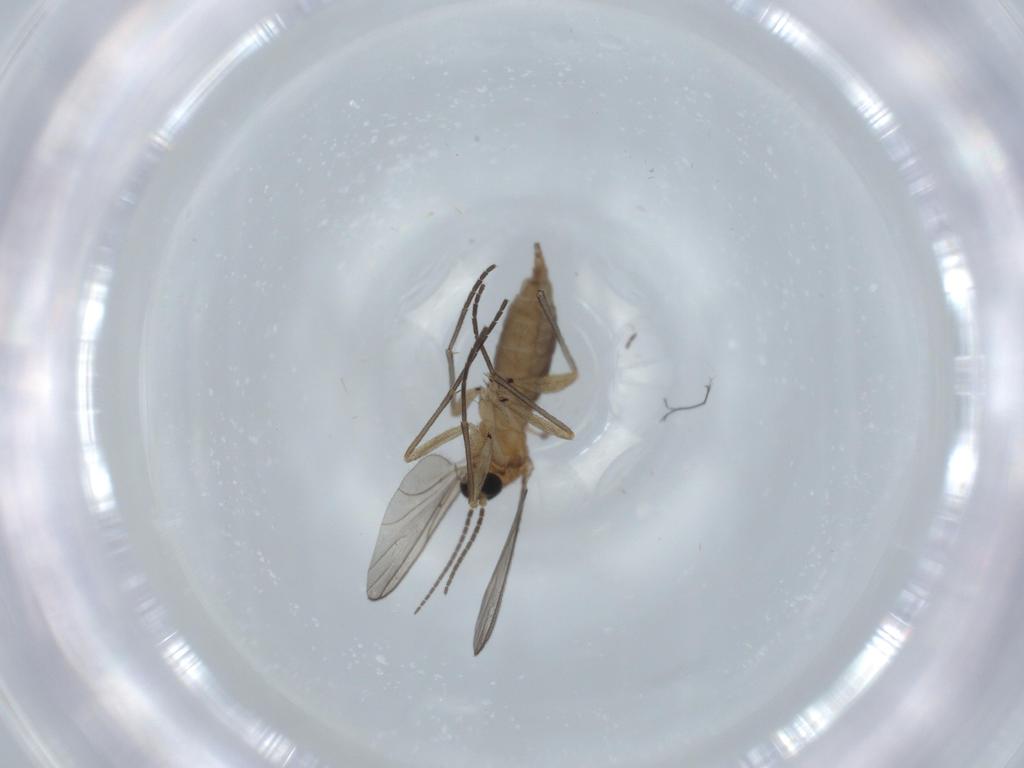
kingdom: Animalia
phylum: Arthropoda
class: Insecta
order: Diptera
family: Sciaridae
